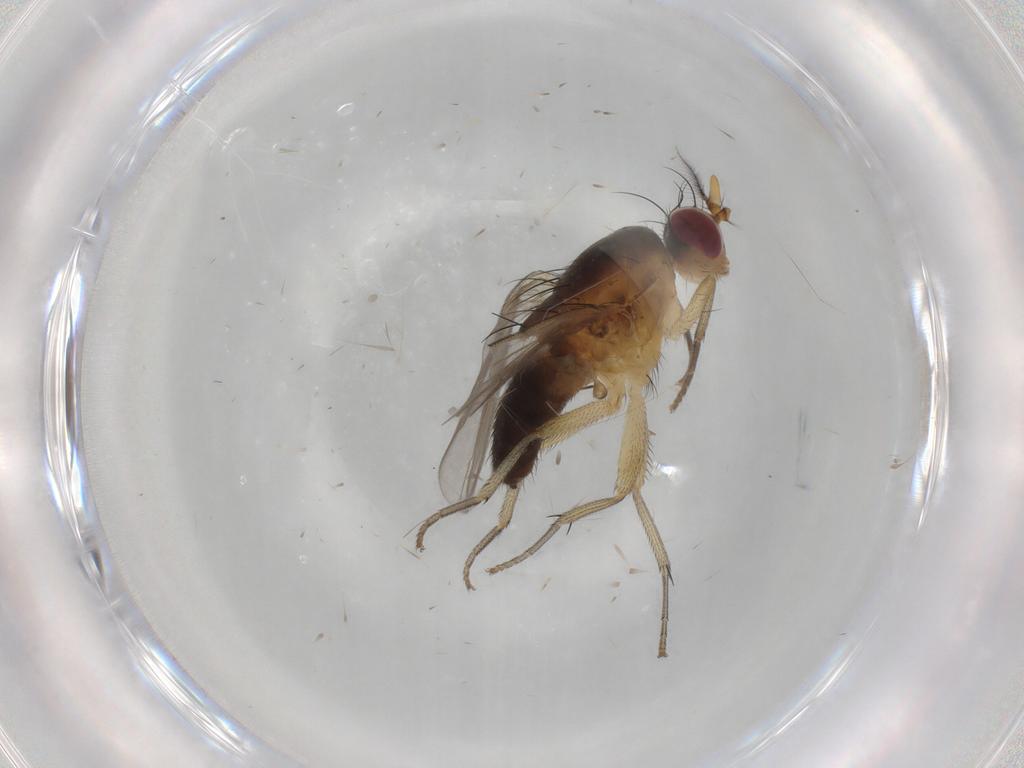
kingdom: Animalia
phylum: Arthropoda
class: Insecta
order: Diptera
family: Lauxaniidae
